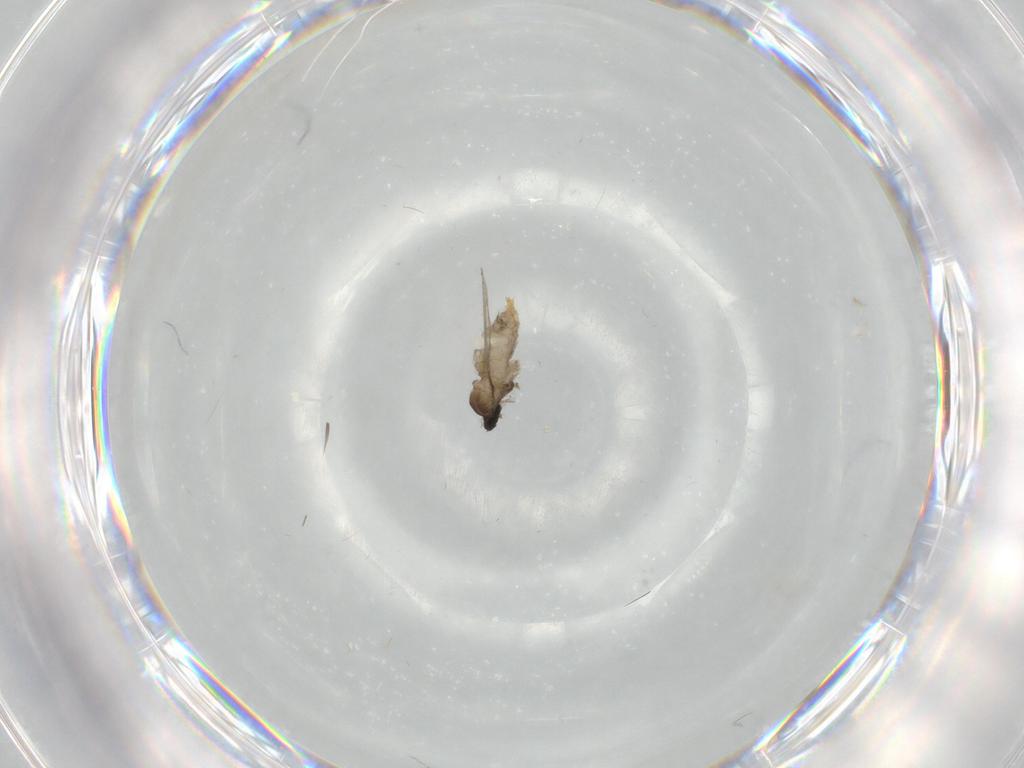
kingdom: Animalia
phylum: Arthropoda
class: Insecta
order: Diptera
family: Cecidomyiidae
